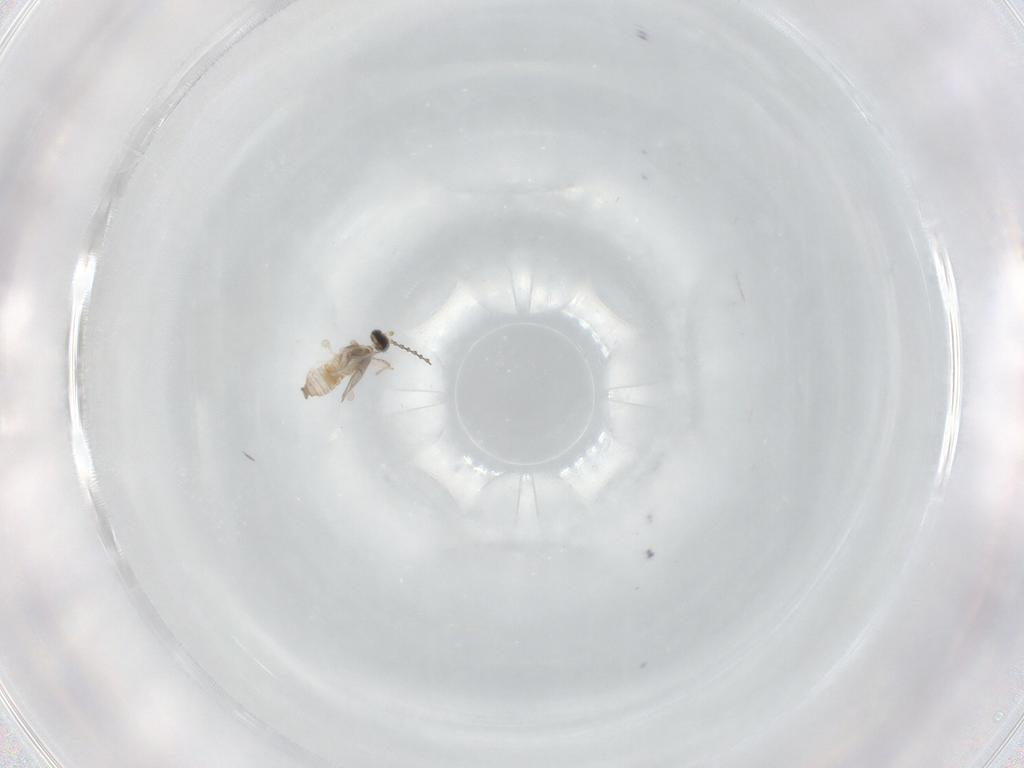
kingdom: Animalia
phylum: Arthropoda
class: Insecta
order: Diptera
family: Cecidomyiidae
